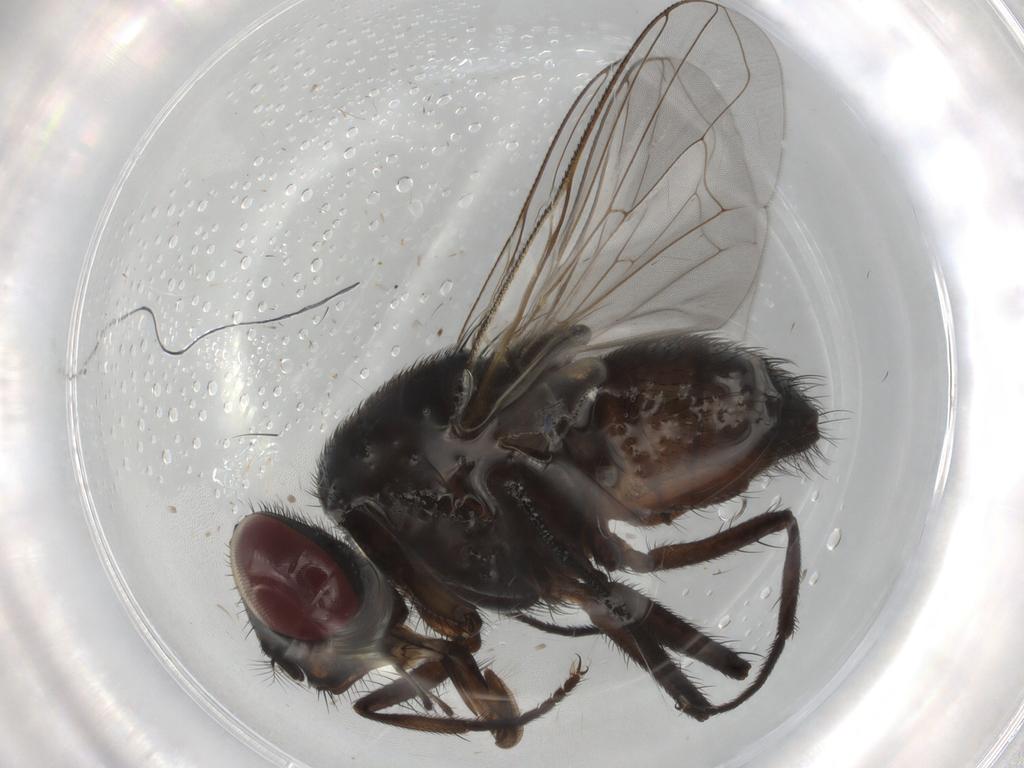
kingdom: Animalia
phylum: Arthropoda
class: Insecta
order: Diptera
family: Muscidae
